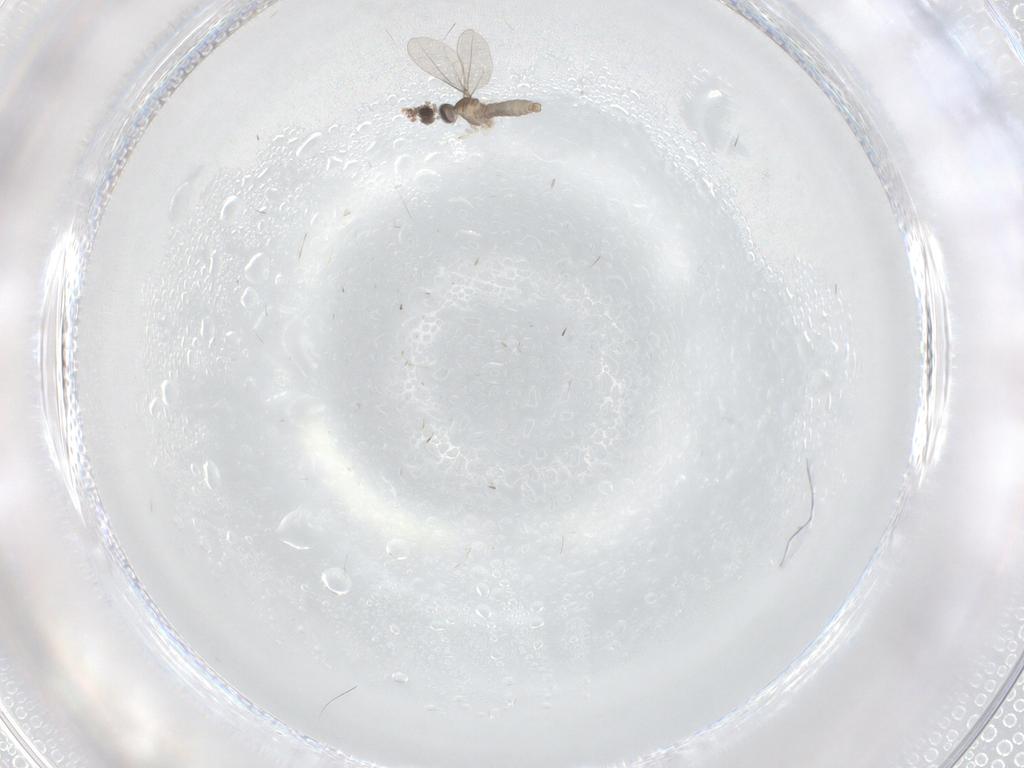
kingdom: Animalia
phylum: Arthropoda
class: Insecta
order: Diptera
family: Cecidomyiidae
